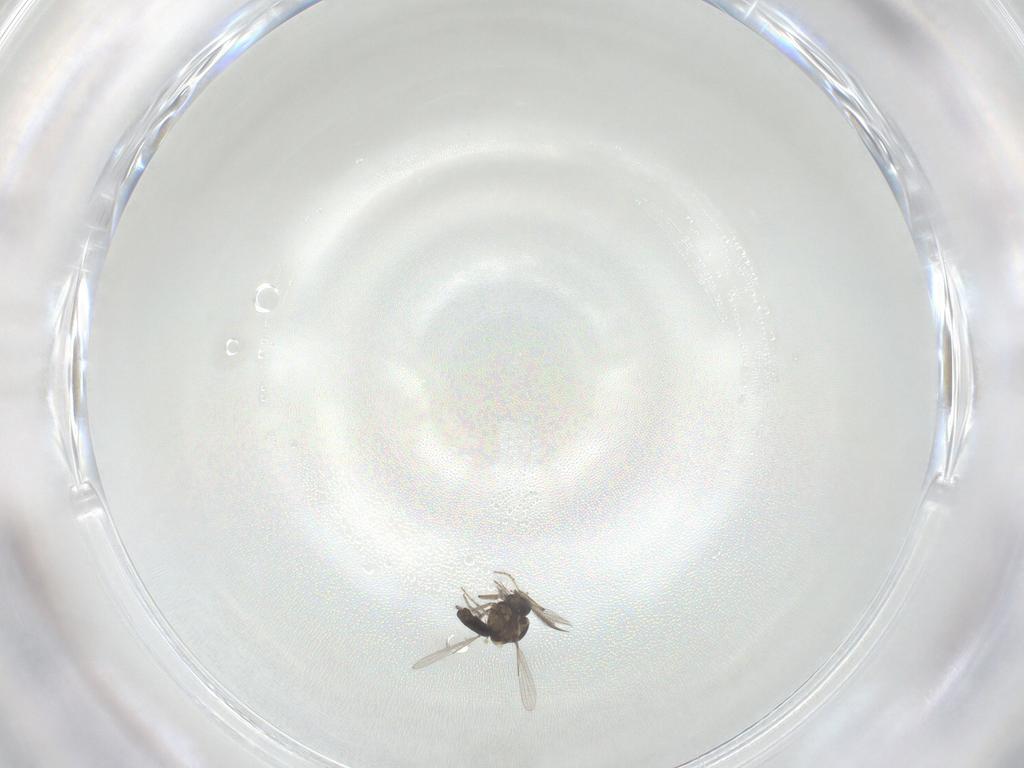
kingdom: Animalia
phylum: Arthropoda
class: Insecta
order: Diptera
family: Ceratopogonidae
